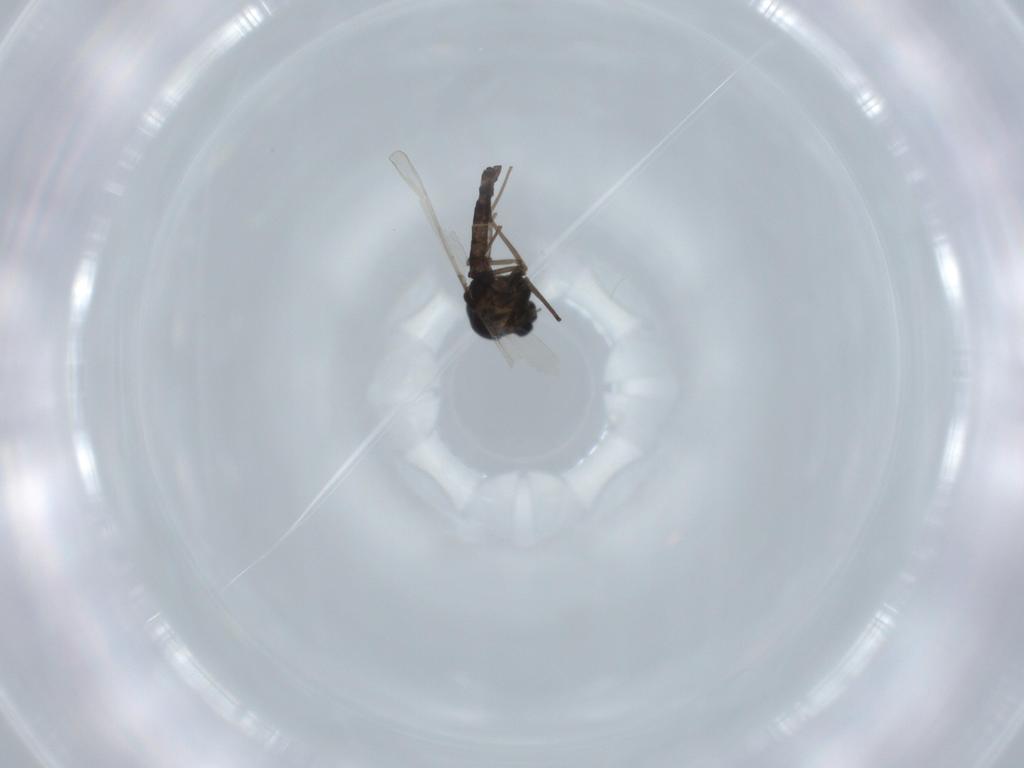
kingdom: Animalia
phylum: Arthropoda
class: Insecta
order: Diptera
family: Chironomidae
